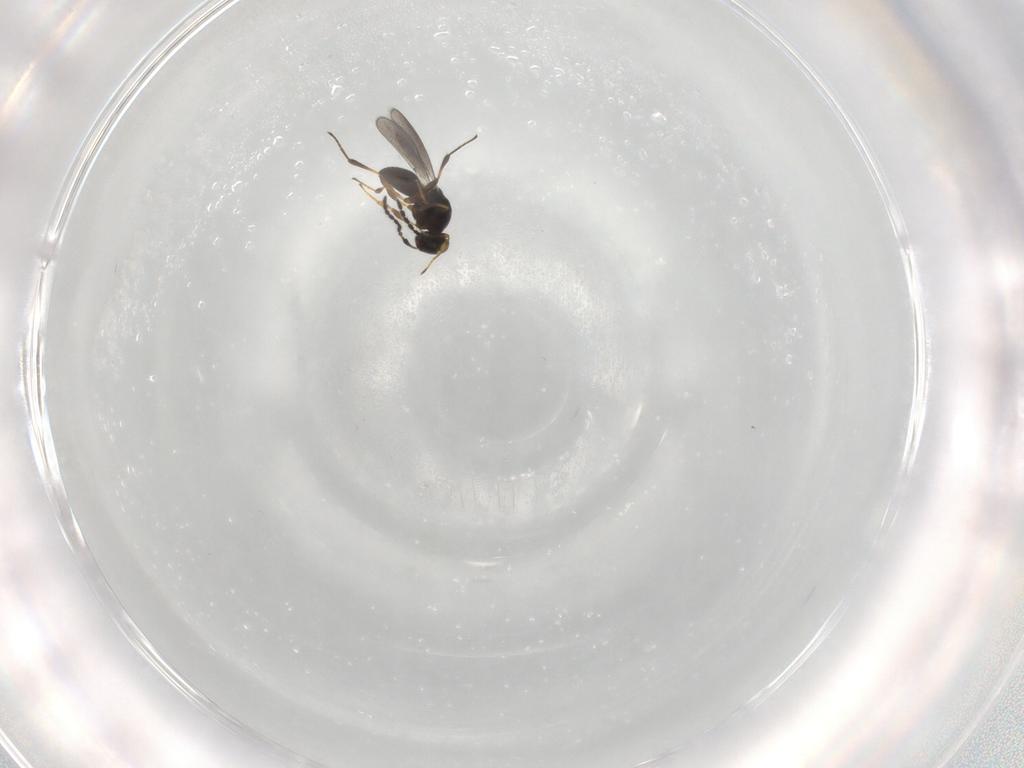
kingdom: Animalia
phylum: Arthropoda
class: Insecta
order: Hymenoptera
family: Platygastridae
